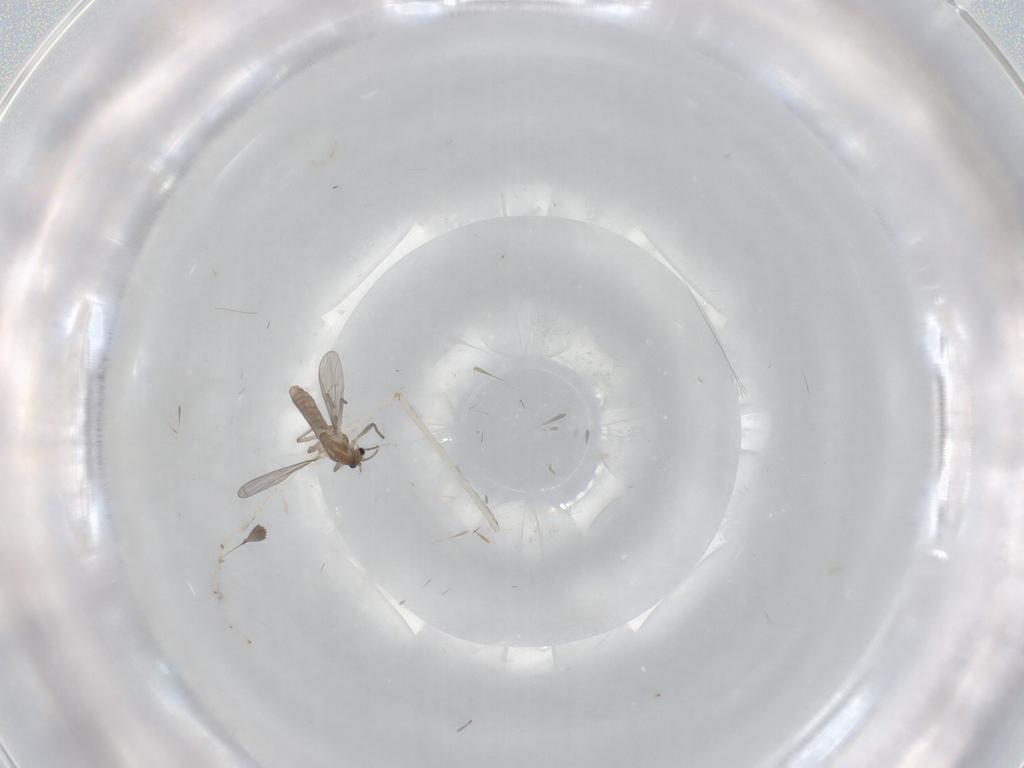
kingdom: Animalia
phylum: Arthropoda
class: Insecta
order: Diptera
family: Chironomidae
